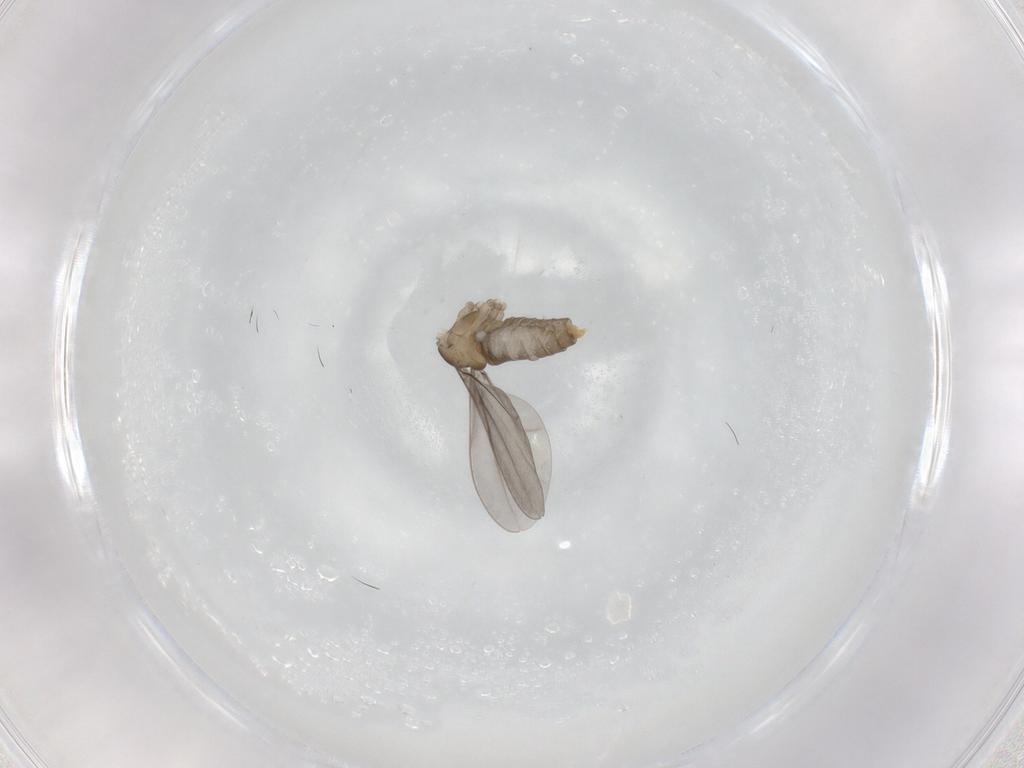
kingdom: Animalia
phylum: Arthropoda
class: Insecta
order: Diptera
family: Cecidomyiidae
